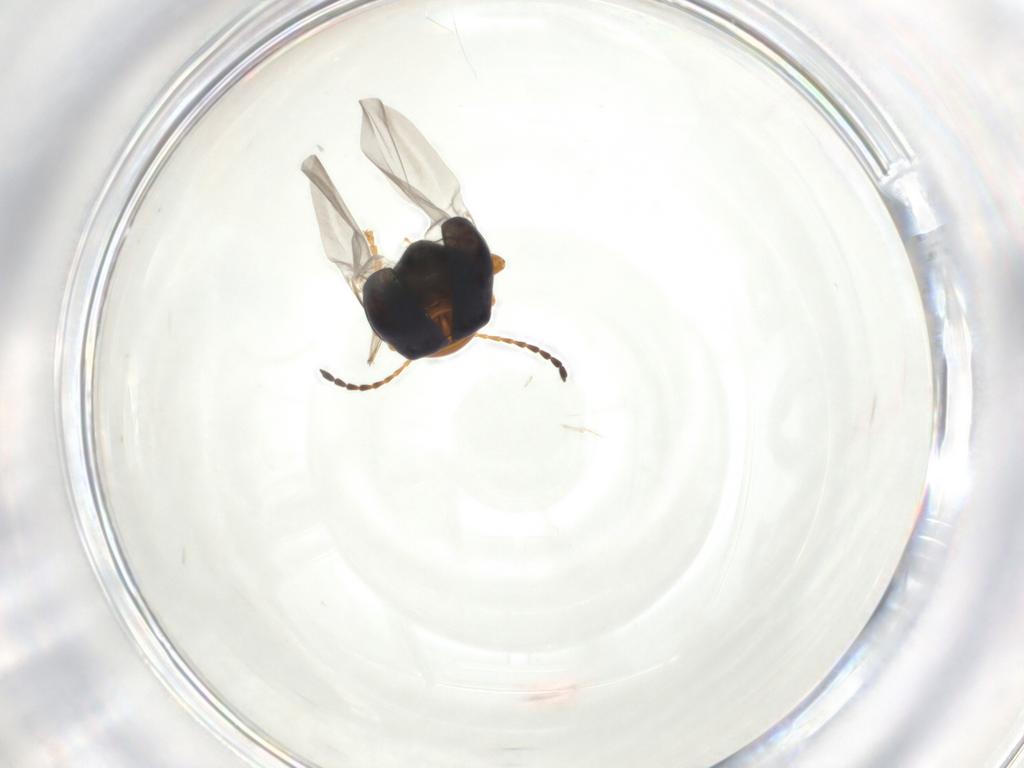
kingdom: Animalia
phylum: Arthropoda
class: Insecta
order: Coleoptera
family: Chrysomelidae
